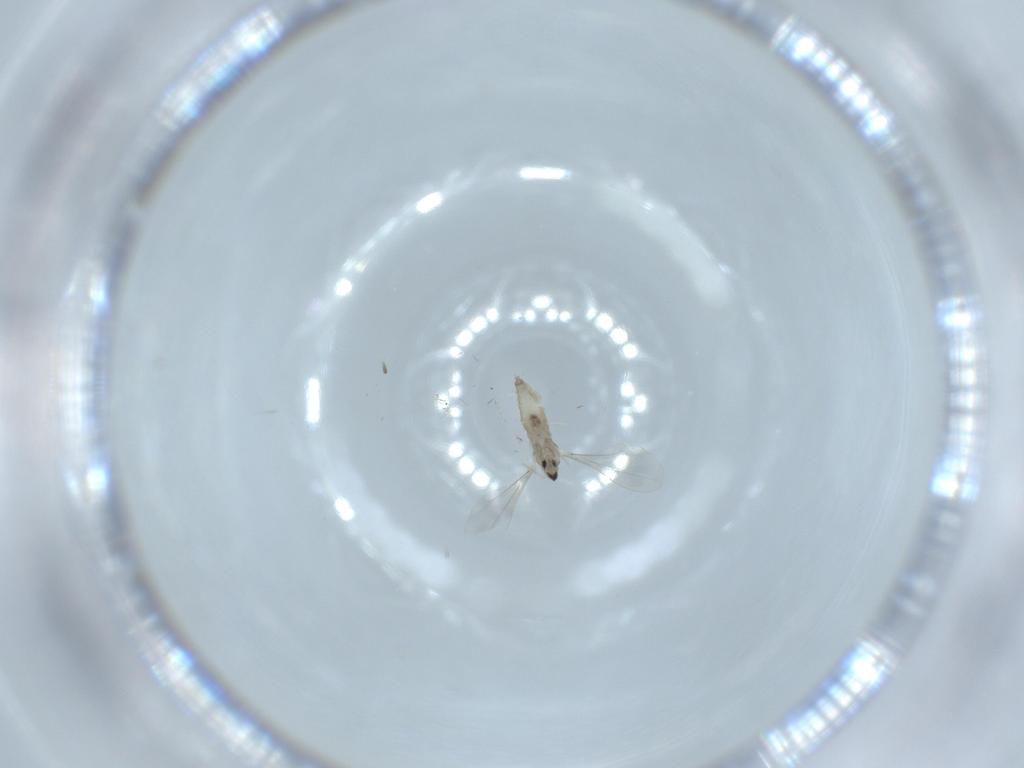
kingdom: Animalia
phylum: Arthropoda
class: Insecta
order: Diptera
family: Cecidomyiidae
